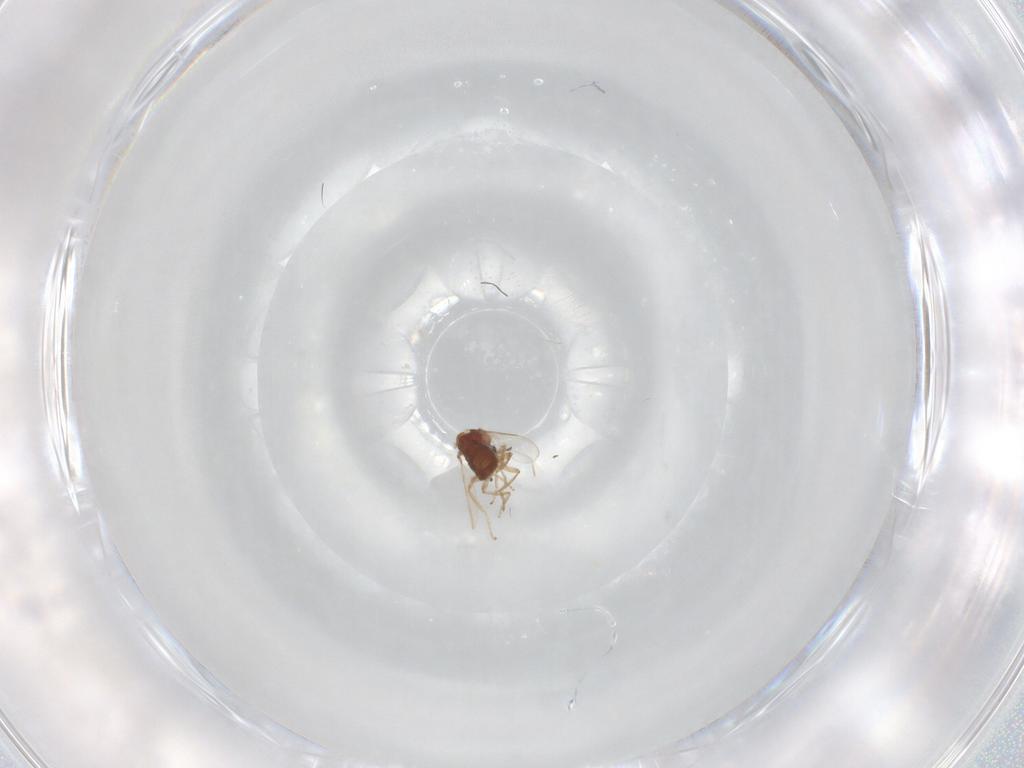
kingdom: Animalia
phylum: Arthropoda
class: Insecta
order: Diptera
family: Ceratopogonidae
